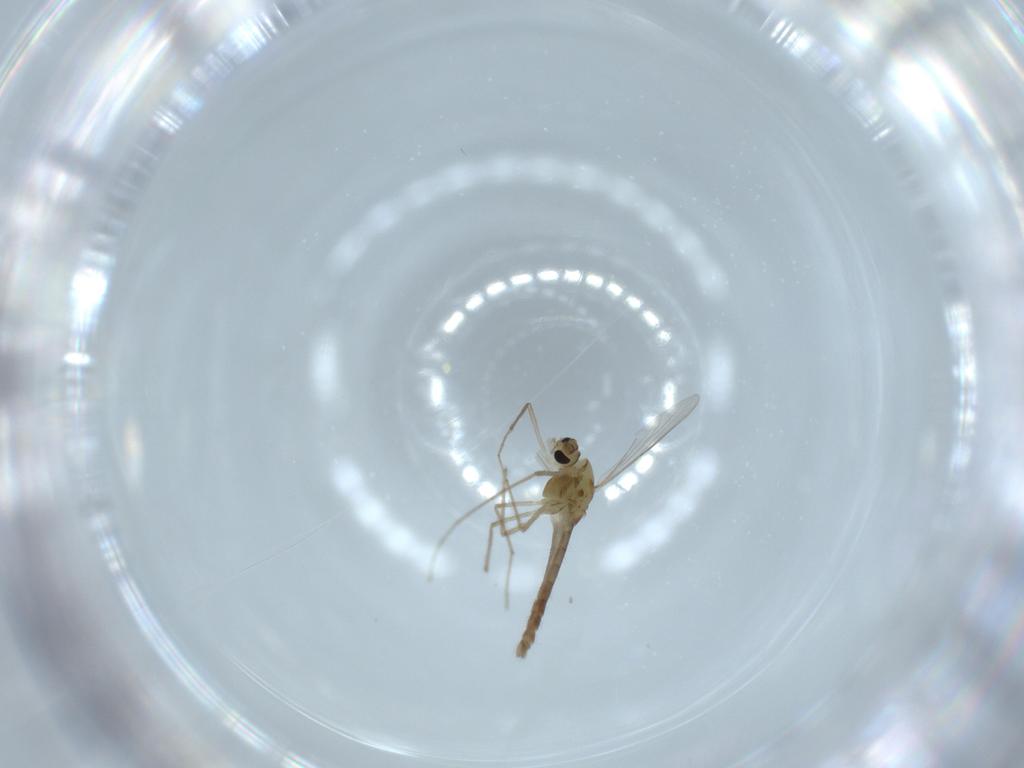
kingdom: Animalia
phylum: Arthropoda
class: Insecta
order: Diptera
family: Chironomidae
